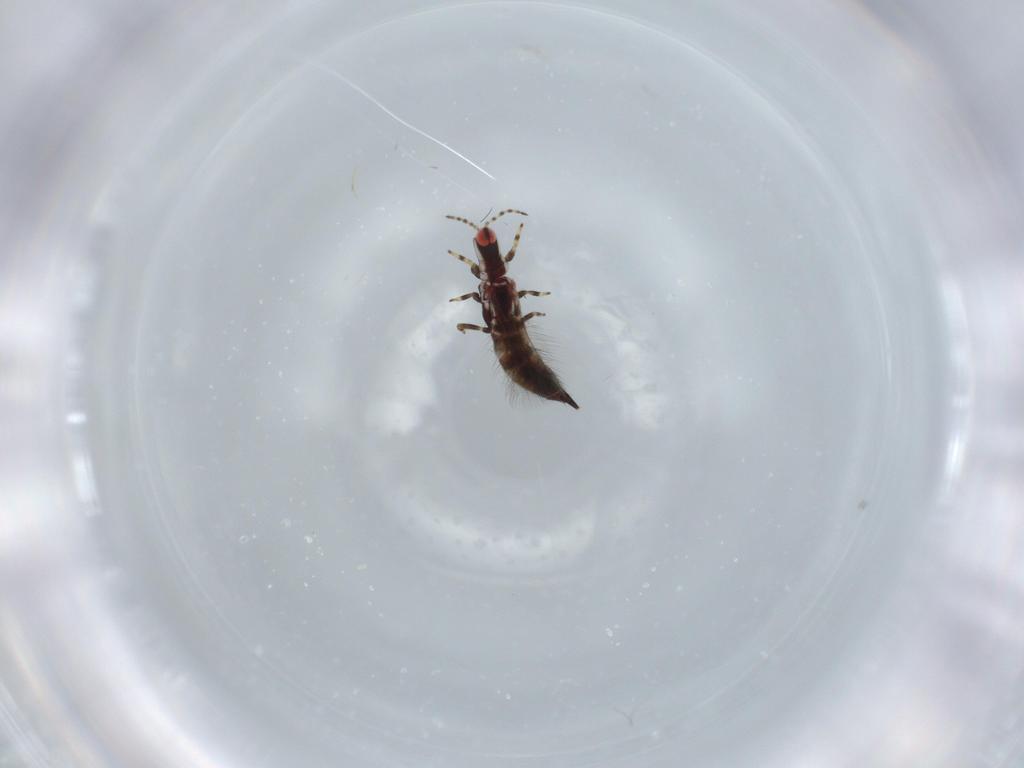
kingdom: Animalia
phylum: Arthropoda
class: Insecta
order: Thysanoptera
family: Phlaeothripidae
